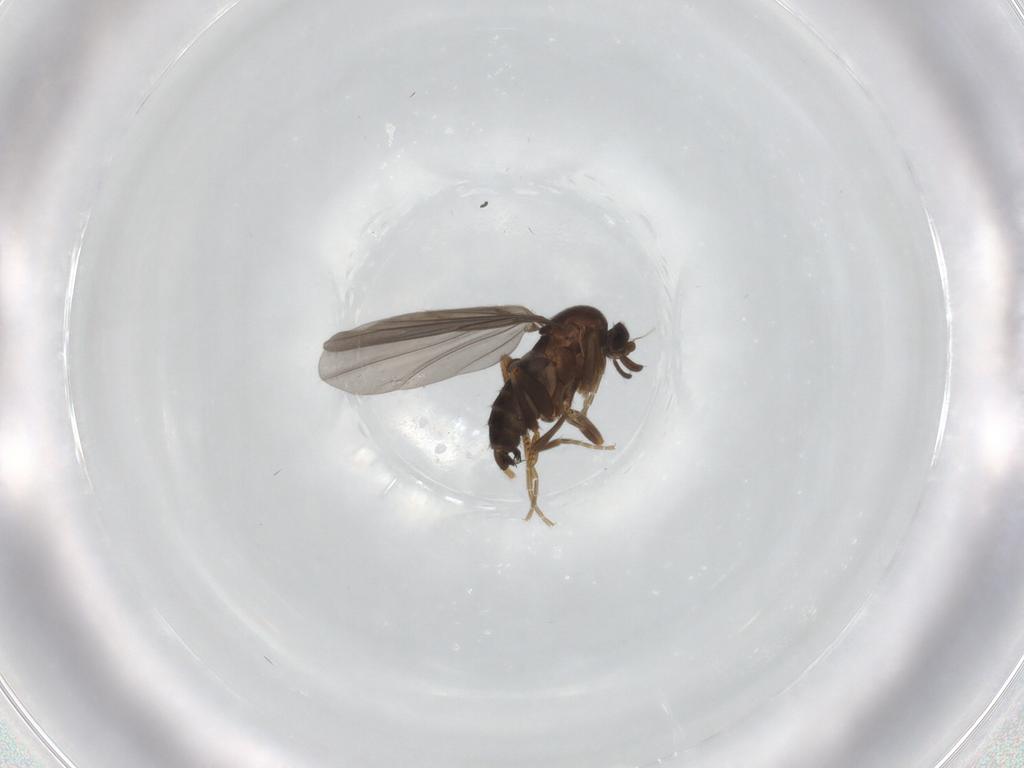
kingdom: Animalia
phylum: Arthropoda
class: Insecta
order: Diptera
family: Phoridae
